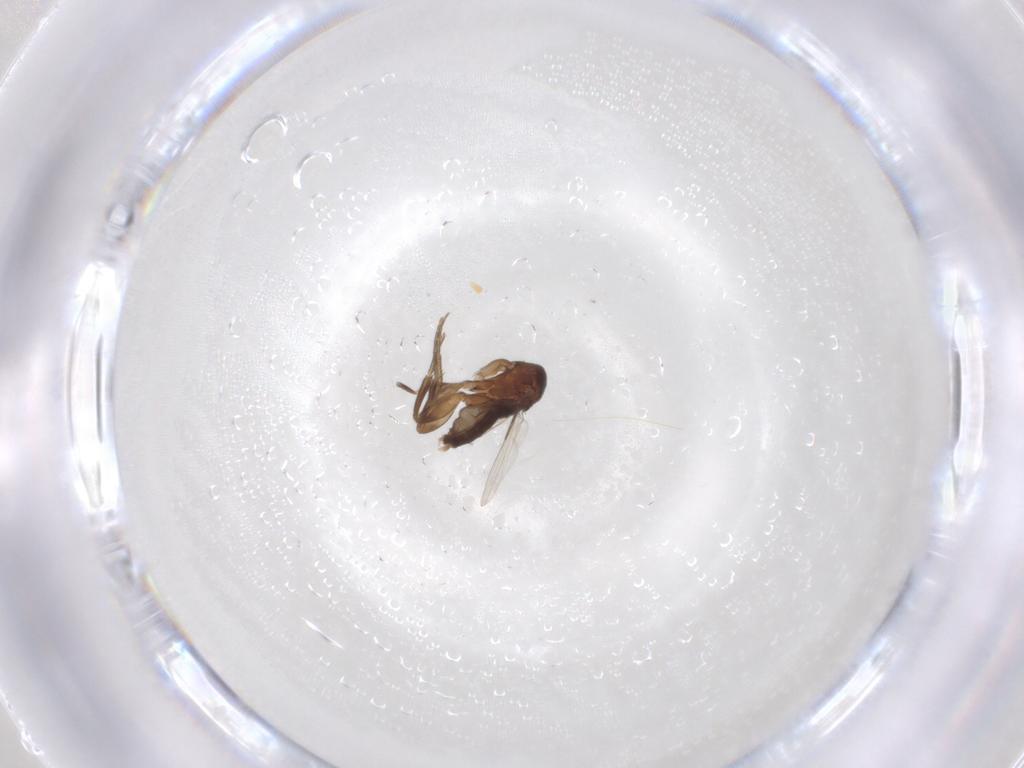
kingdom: Animalia
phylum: Arthropoda
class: Insecta
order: Diptera
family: Phoridae
